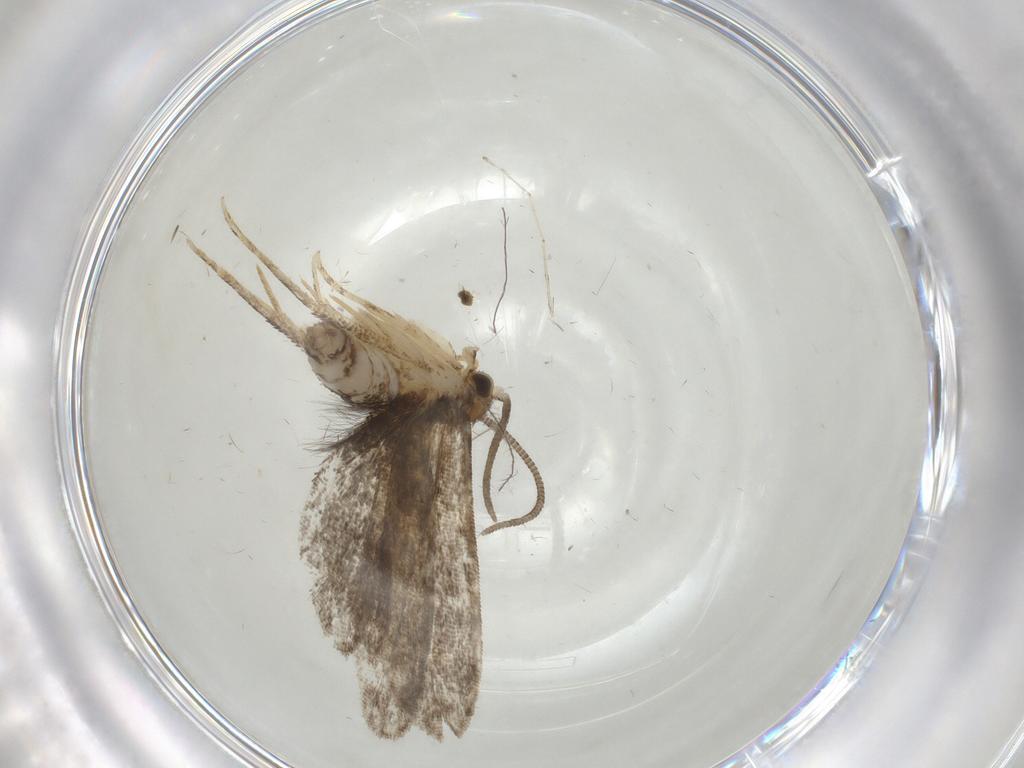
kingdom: Animalia
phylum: Arthropoda
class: Insecta
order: Lepidoptera
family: Dryadaulidae
